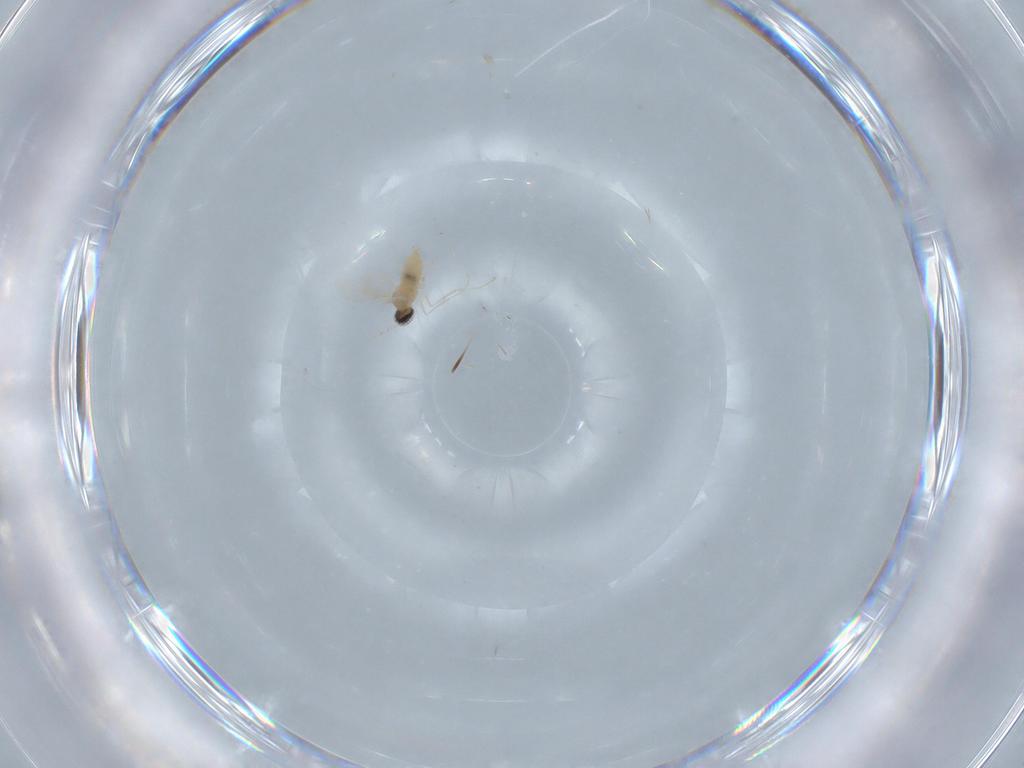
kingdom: Animalia
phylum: Arthropoda
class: Insecta
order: Diptera
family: Cecidomyiidae
